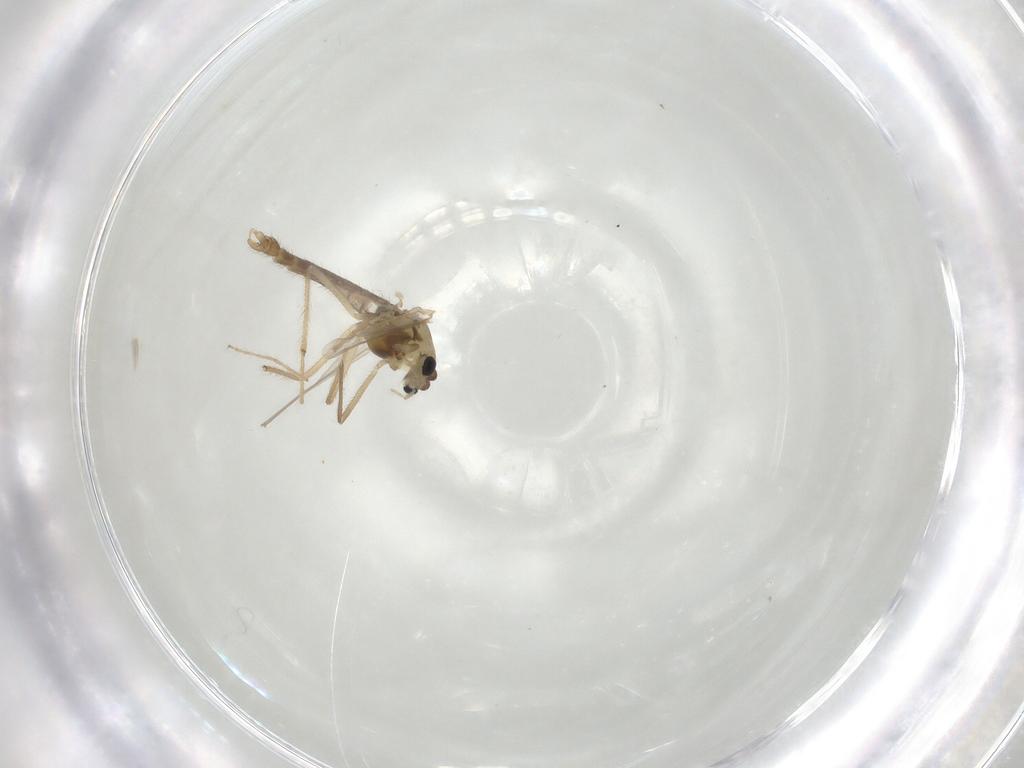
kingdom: Animalia
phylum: Arthropoda
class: Insecta
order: Diptera
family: Chironomidae
